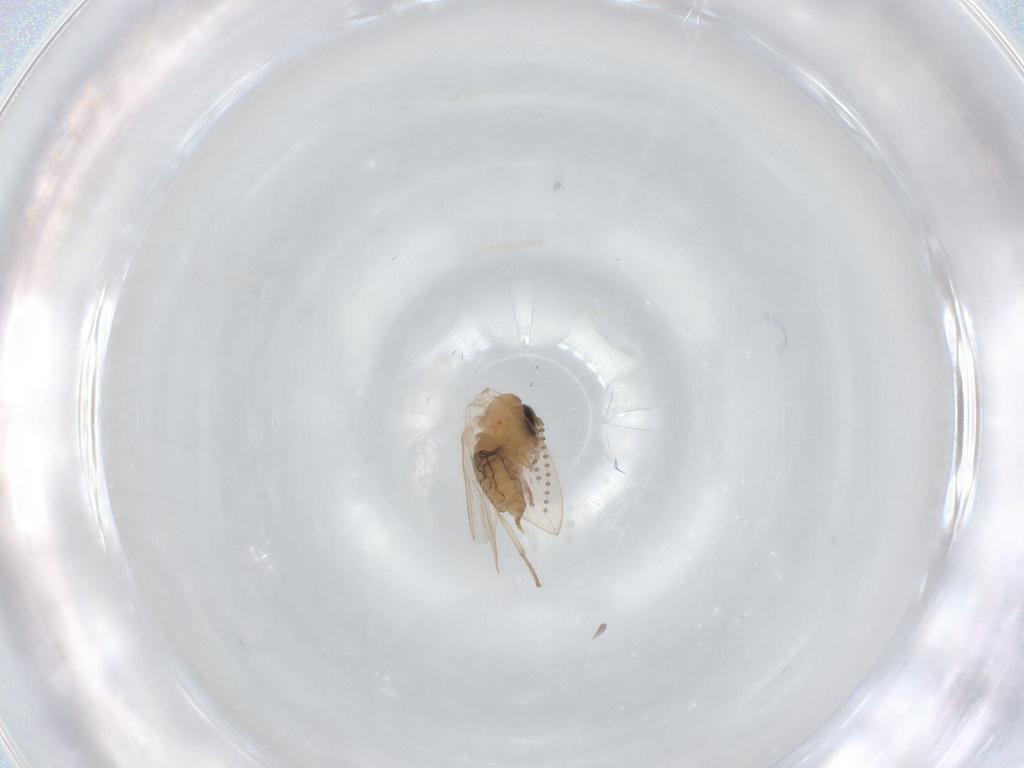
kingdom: Animalia
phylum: Arthropoda
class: Insecta
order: Diptera
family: Psychodidae
